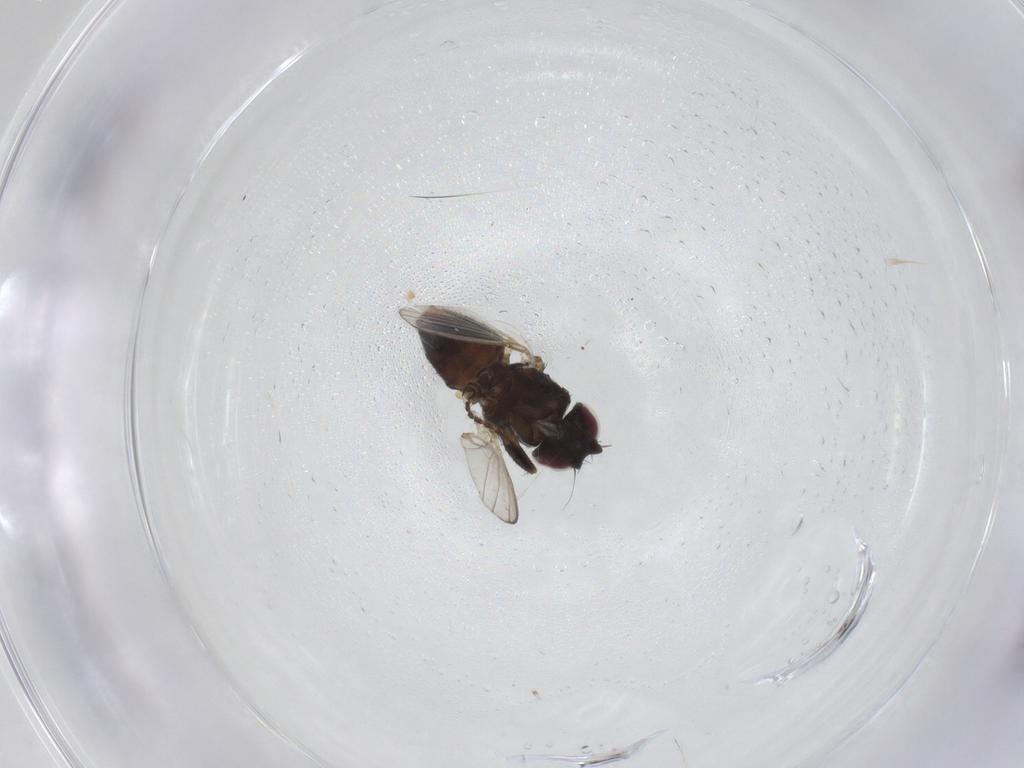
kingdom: Animalia
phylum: Arthropoda
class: Insecta
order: Diptera
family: Milichiidae
